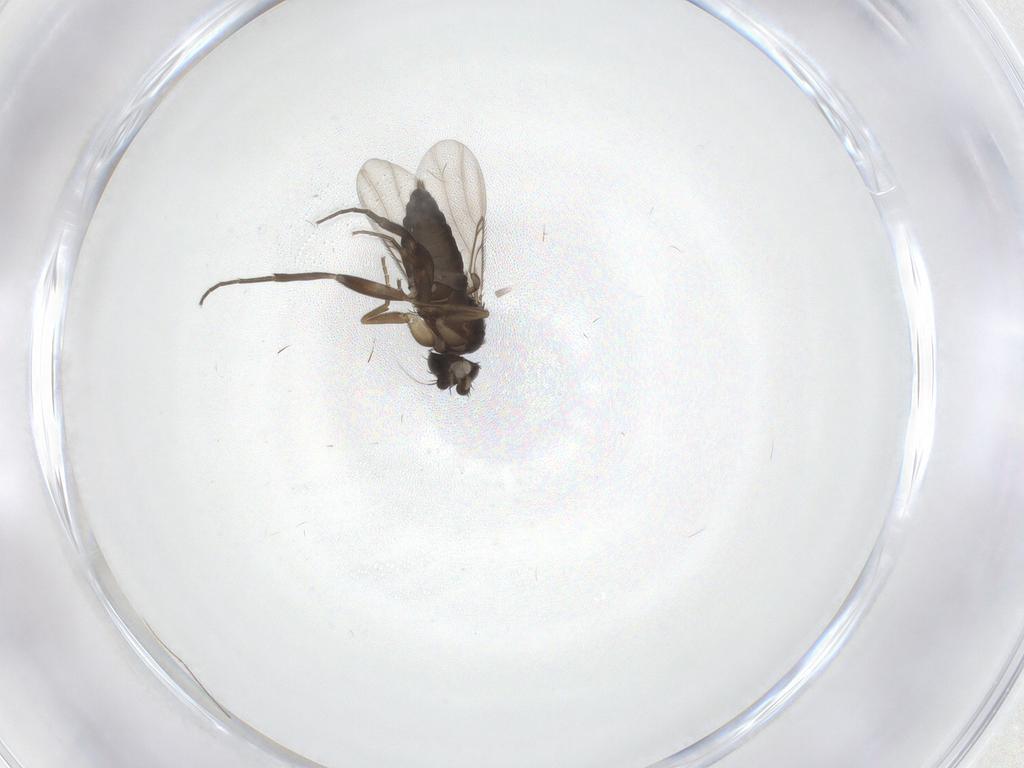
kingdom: Animalia
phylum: Arthropoda
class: Insecta
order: Diptera
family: Phoridae
